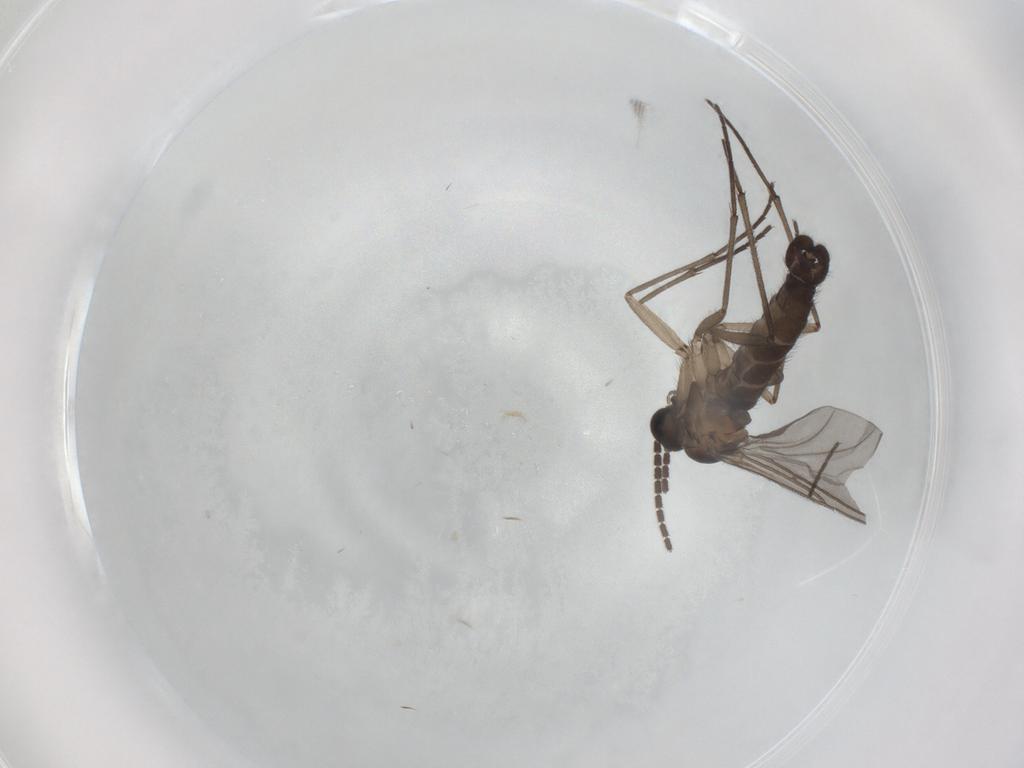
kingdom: Animalia
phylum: Arthropoda
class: Insecta
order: Diptera
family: Sciaridae
